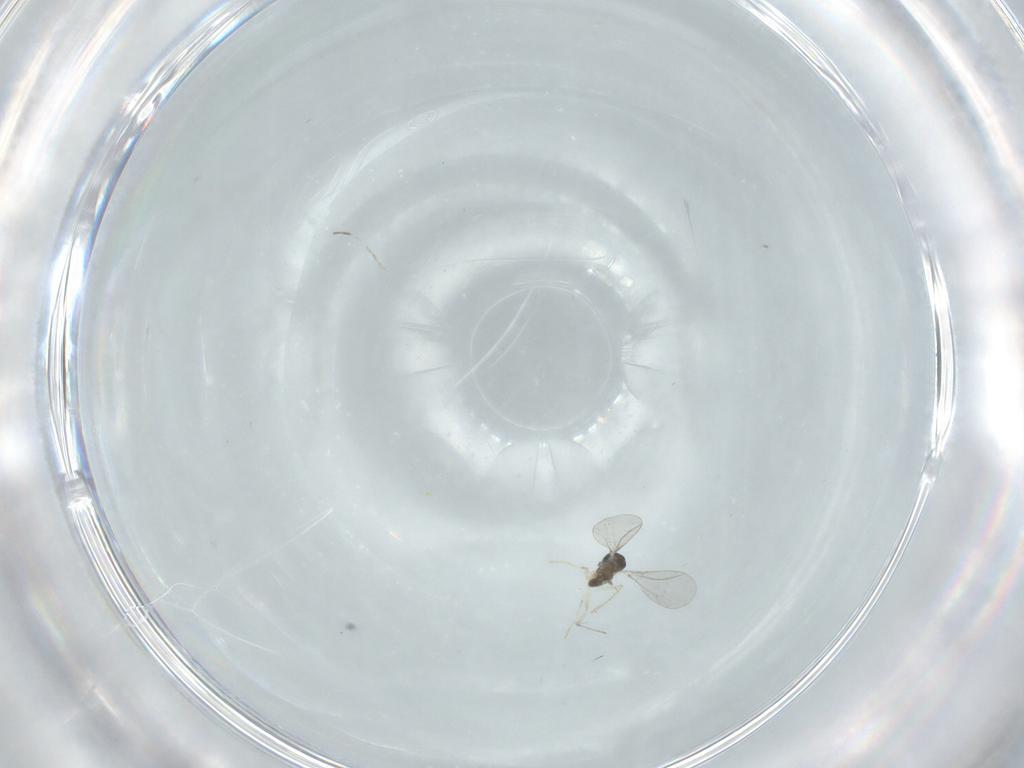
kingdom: Animalia
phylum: Arthropoda
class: Insecta
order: Diptera
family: Cecidomyiidae
